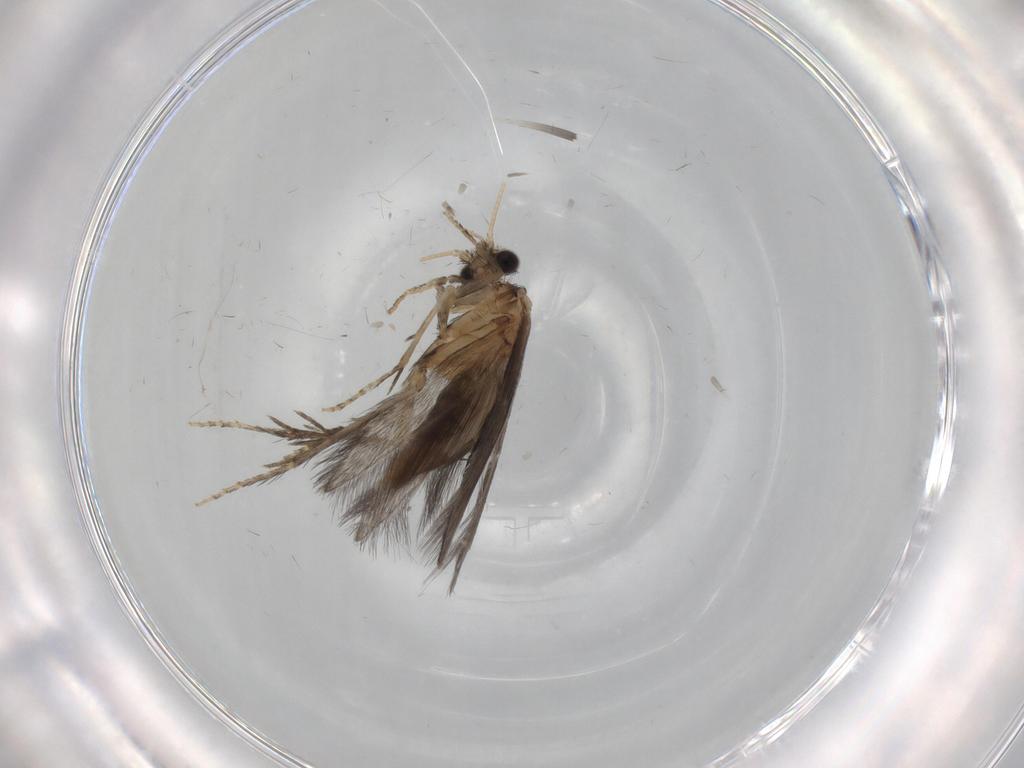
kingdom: Animalia
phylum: Arthropoda
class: Insecta
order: Trichoptera
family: Hydroptilidae
